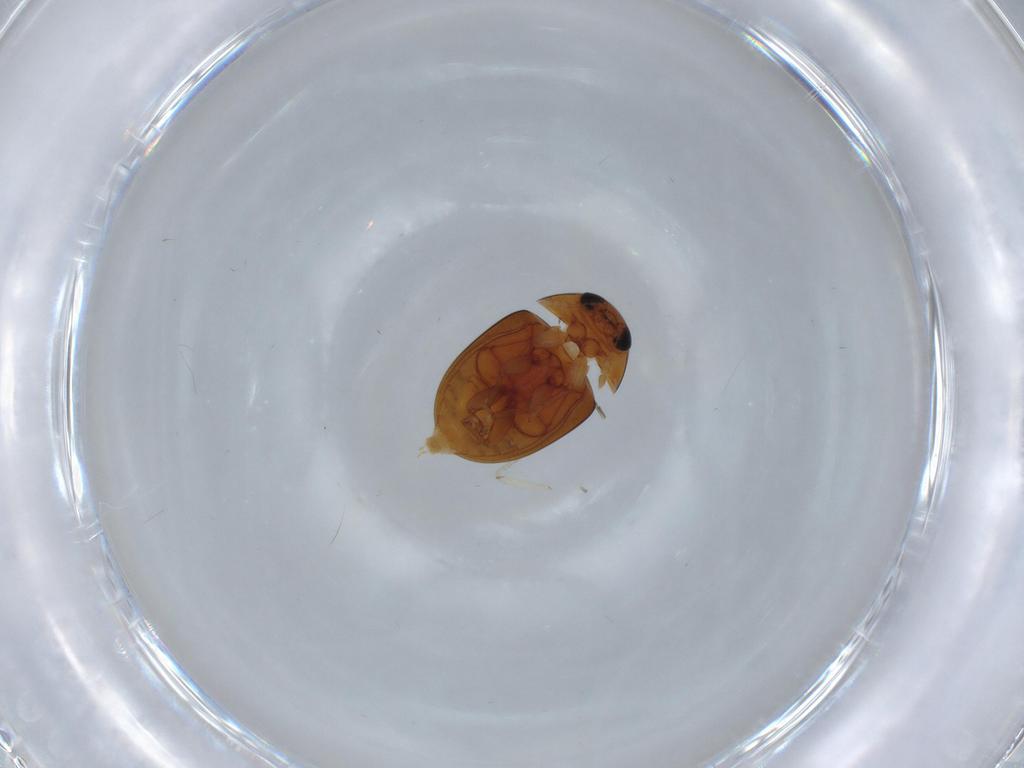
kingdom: Animalia
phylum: Arthropoda
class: Insecta
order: Coleoptera
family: Phalacridae
